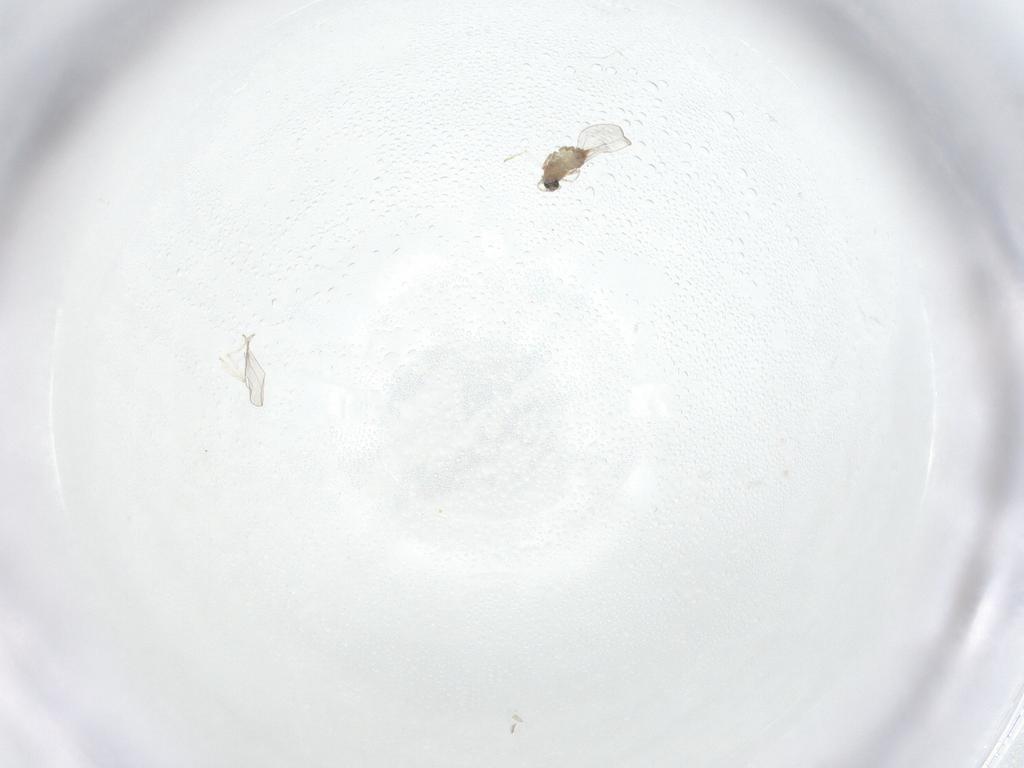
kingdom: Animalia
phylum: Arthropoda
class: Insecta
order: Diptera
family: Cecidomyiidae
